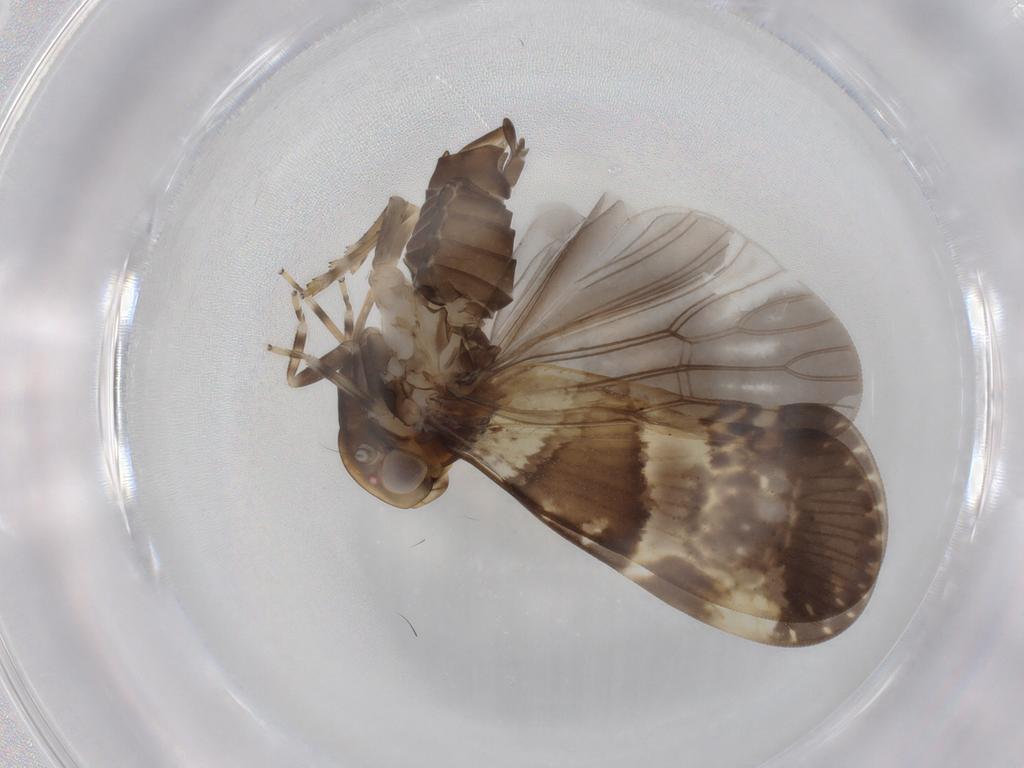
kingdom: Animalia
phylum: Arthropoda
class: Insecta
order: Hemiptera
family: Cixiidae
